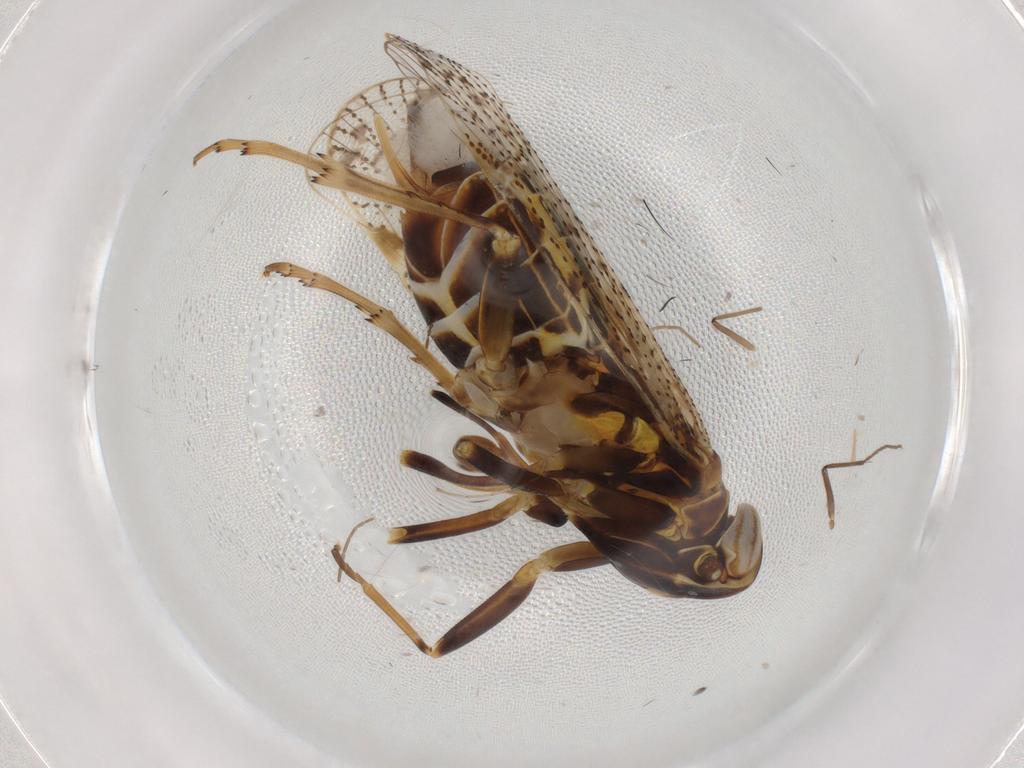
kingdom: Animalia
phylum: Arthropoda
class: Insecta
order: Hemiptera
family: Cixiidae
